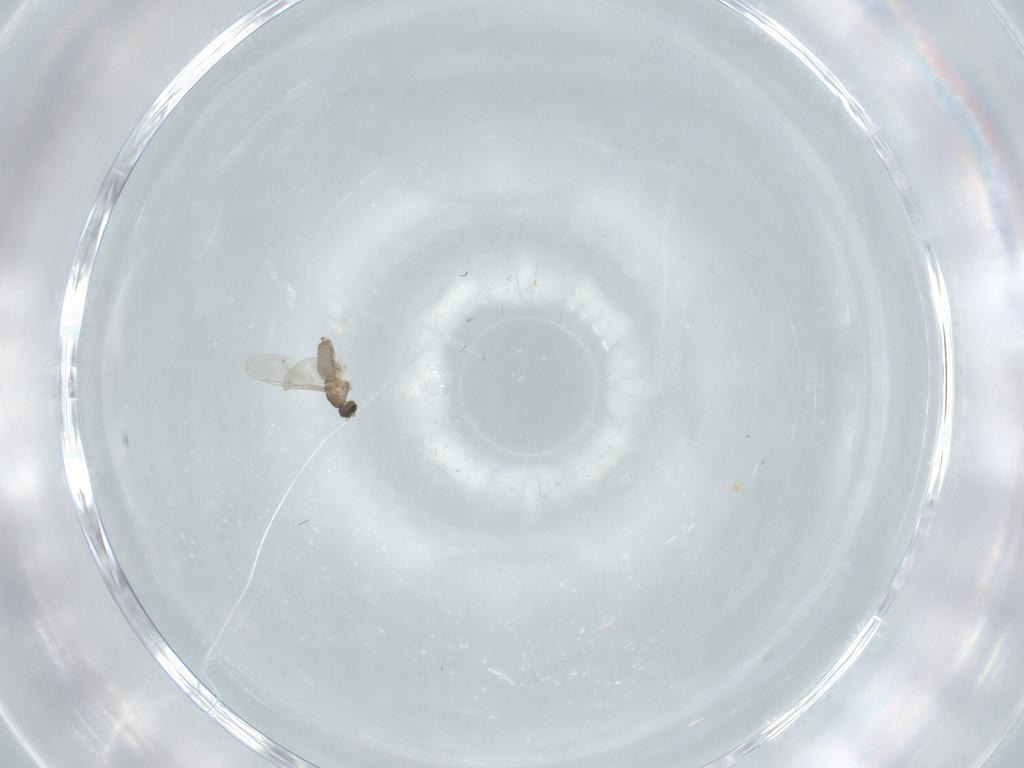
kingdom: Animalia
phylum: Arthropoda
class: Insecta
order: Diptera
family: Cecidomyiidae
